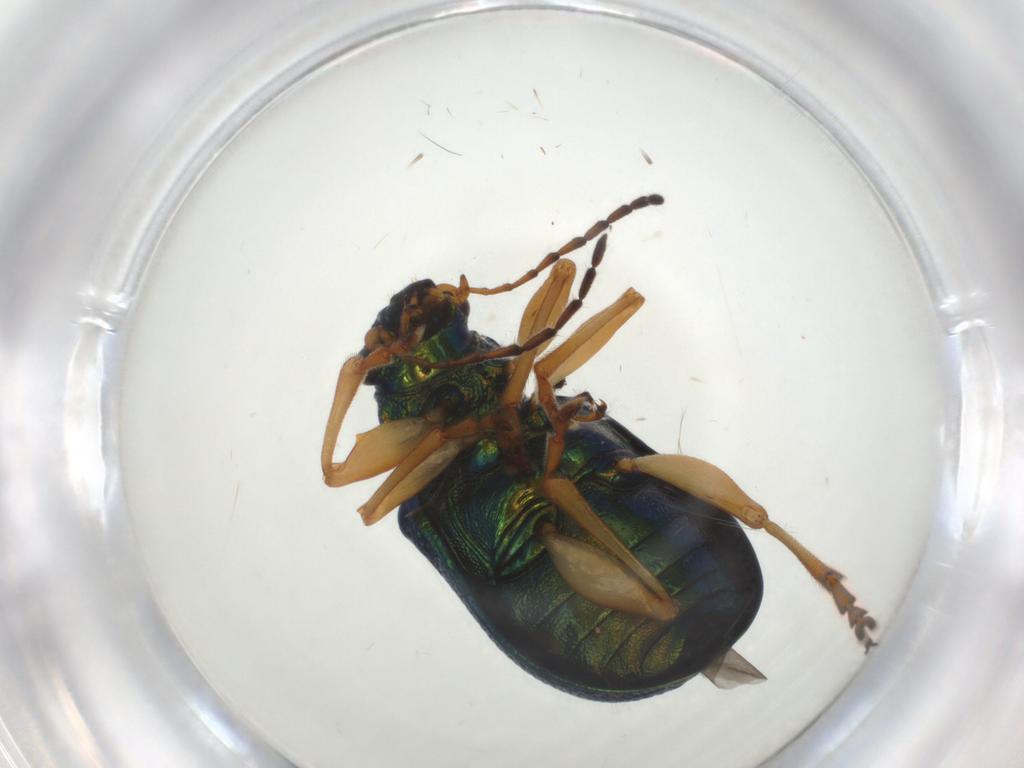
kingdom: Animalia
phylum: Arthropoda
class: Insecta
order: Coleoptera
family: Chrysomelidae
